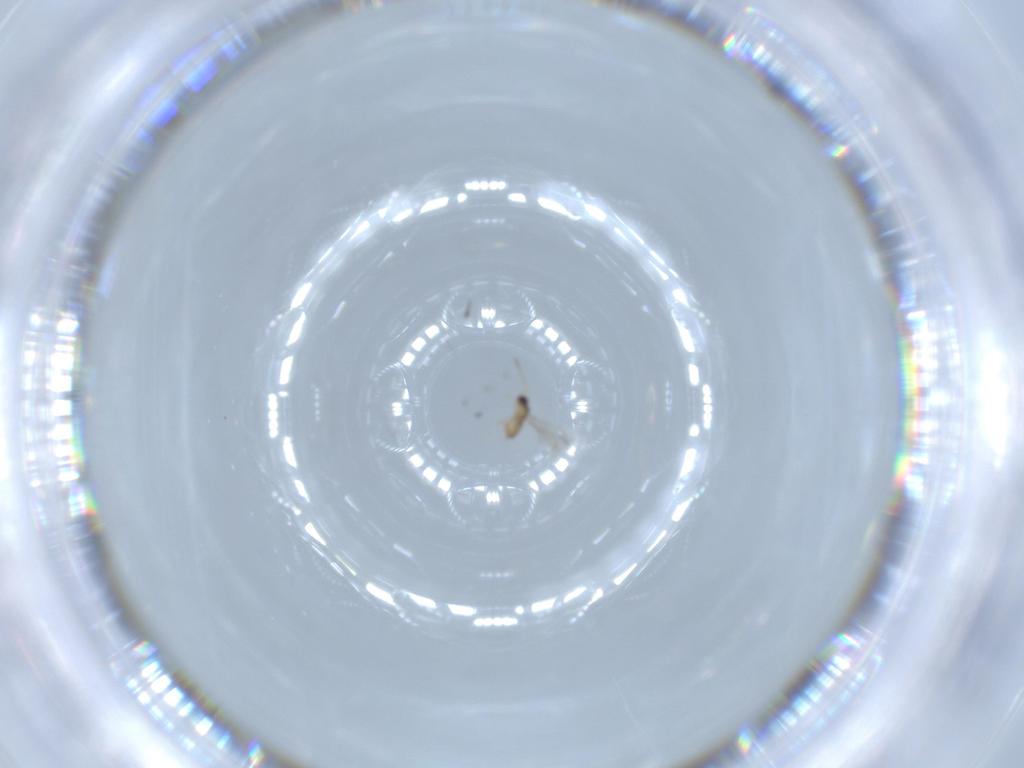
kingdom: Animalia
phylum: Arthropoda
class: Insecta
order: Hymenoptera
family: Mymaridae
